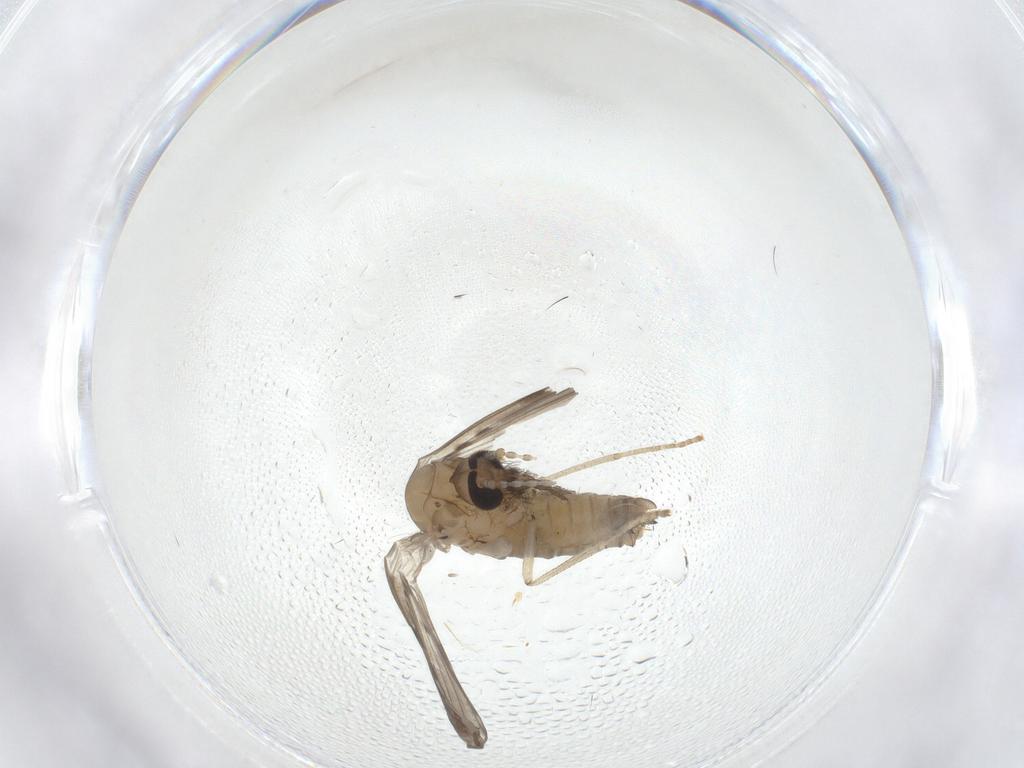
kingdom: Animalia
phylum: Arthropoda
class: Insecta
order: Diptera
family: Psychodidae
